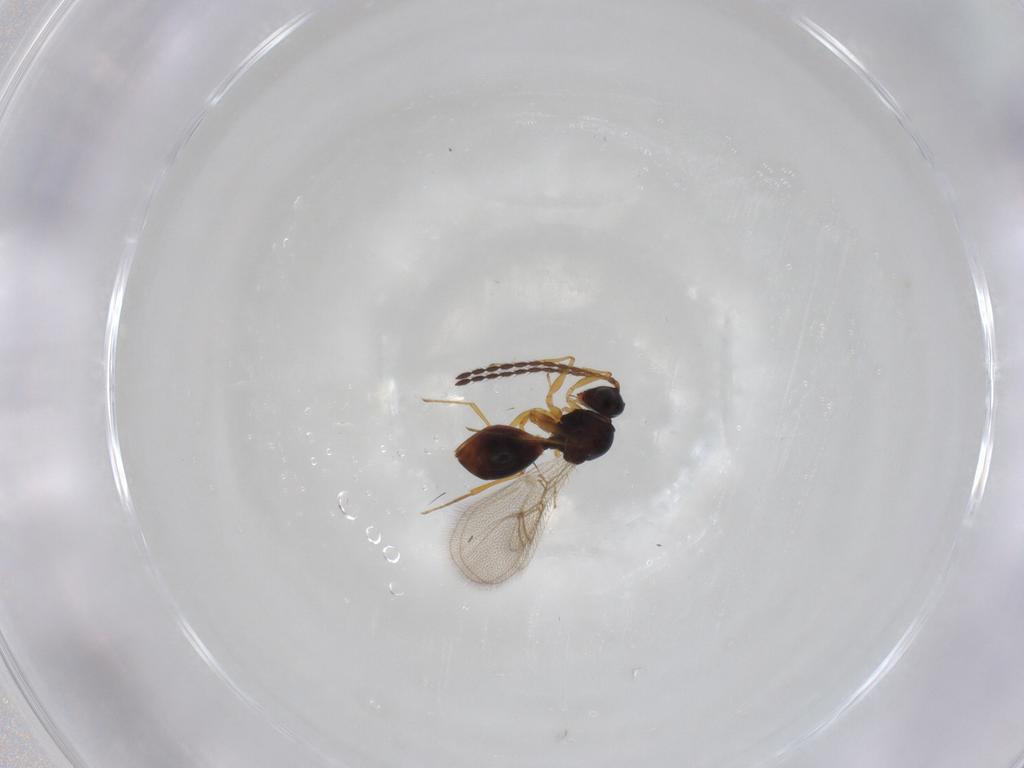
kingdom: Animalia
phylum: Arthropoda
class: Insecta
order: Hymenoptera
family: Figitidae
